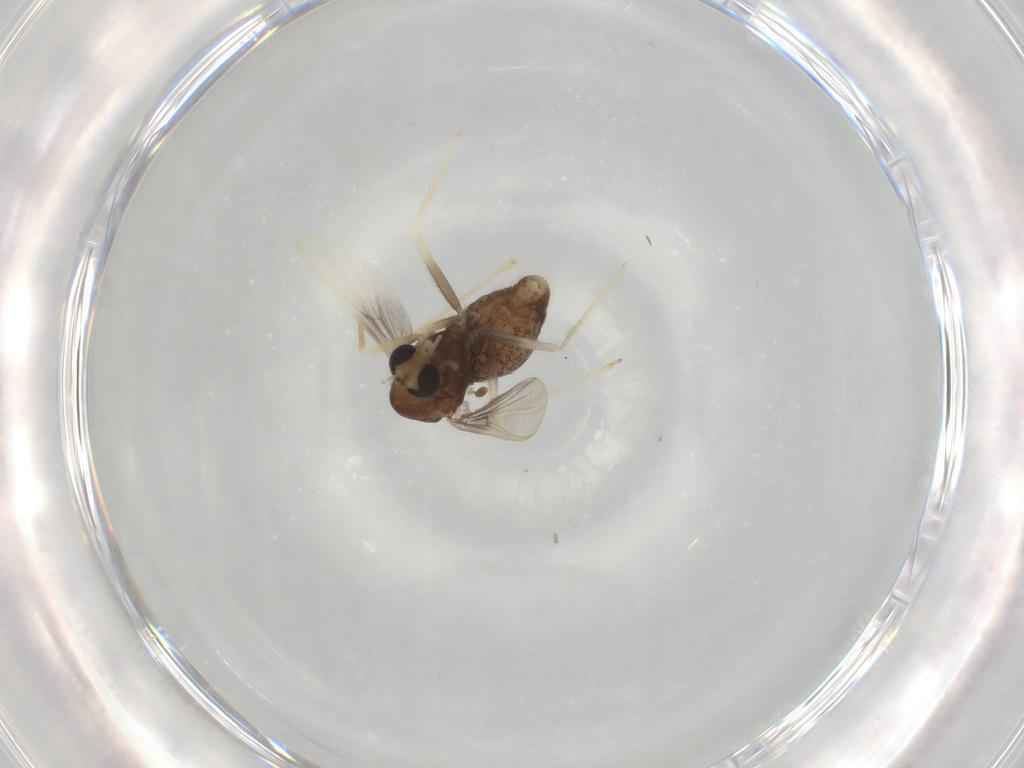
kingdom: Animalia
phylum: Arthropoda
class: Insecta
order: Diptera
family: Chironomidae
